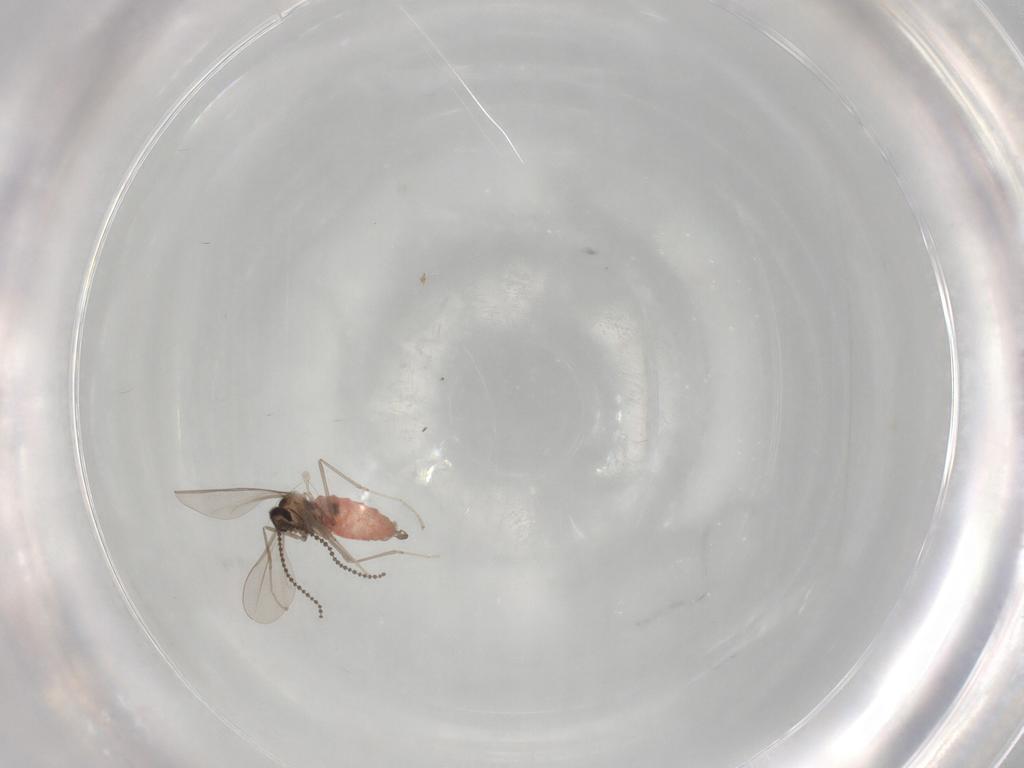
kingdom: Animalia
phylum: Arthropoda
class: Insecta
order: Diptera
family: Cecidomyiidae
